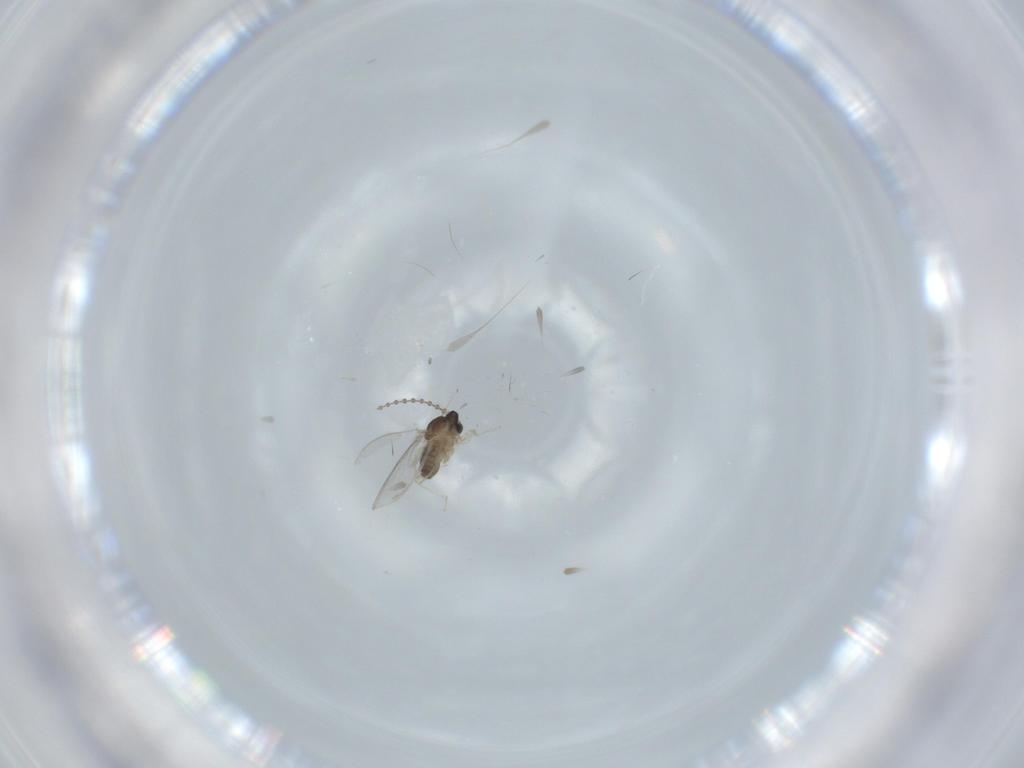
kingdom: Animalia
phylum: Arthropoda
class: Insecta
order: Diptera
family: Cecidomyiidae
